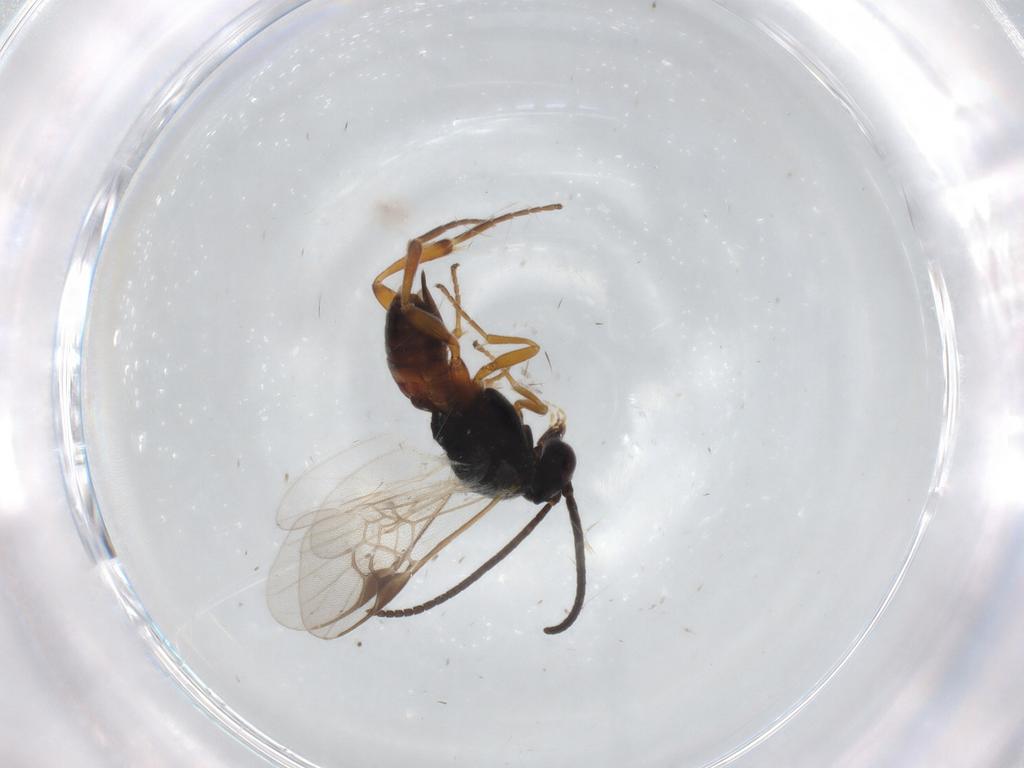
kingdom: Animalia
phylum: Arthropoda
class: Insecta
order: Hymenoptera
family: Braconidae
